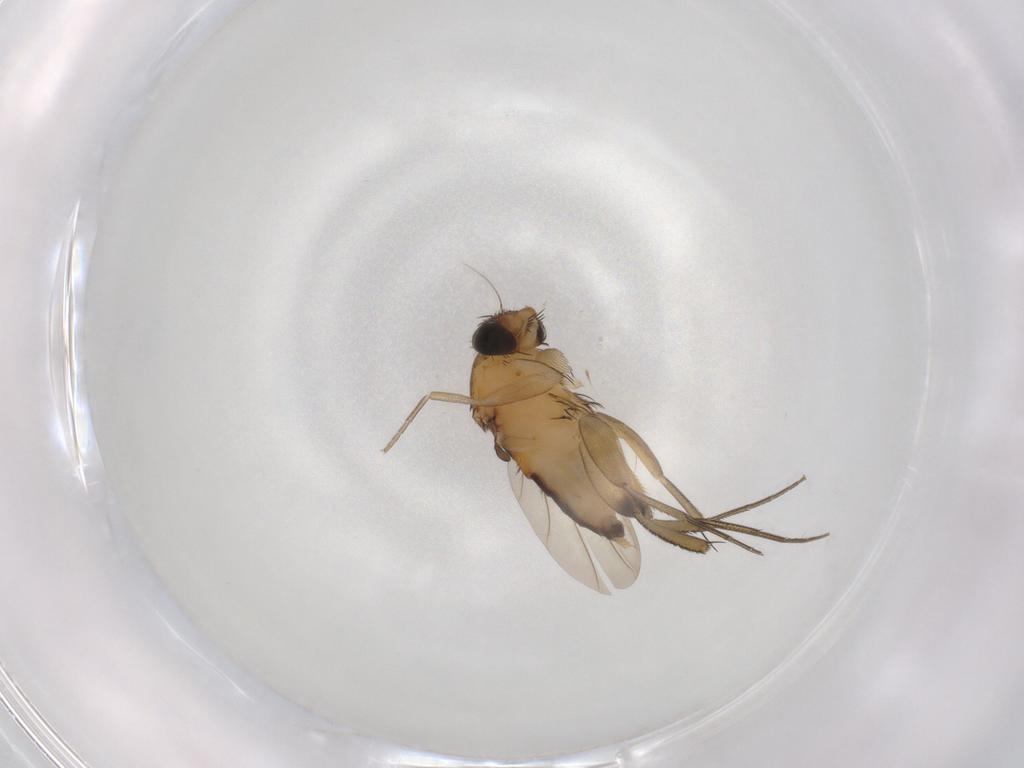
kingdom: Animalia
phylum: Arthropoda
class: Insecta
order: Diptera
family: Phoridae
